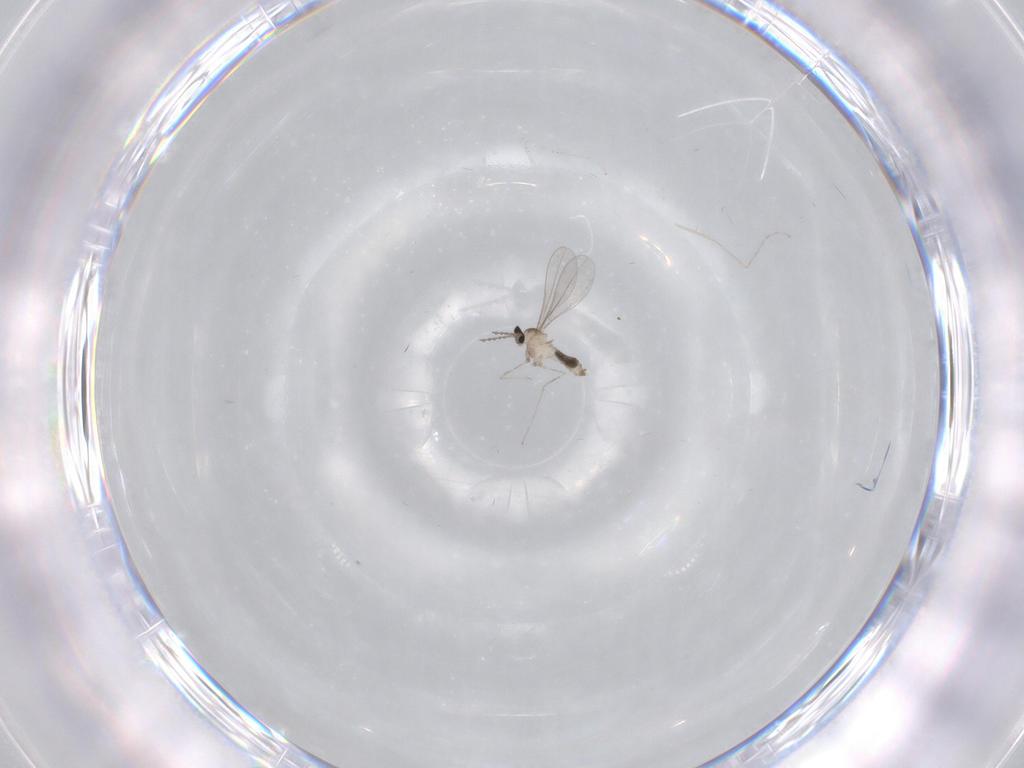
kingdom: Animalia
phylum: Arthropoda
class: Insecta
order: Diptera
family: Cecidomyiidae
